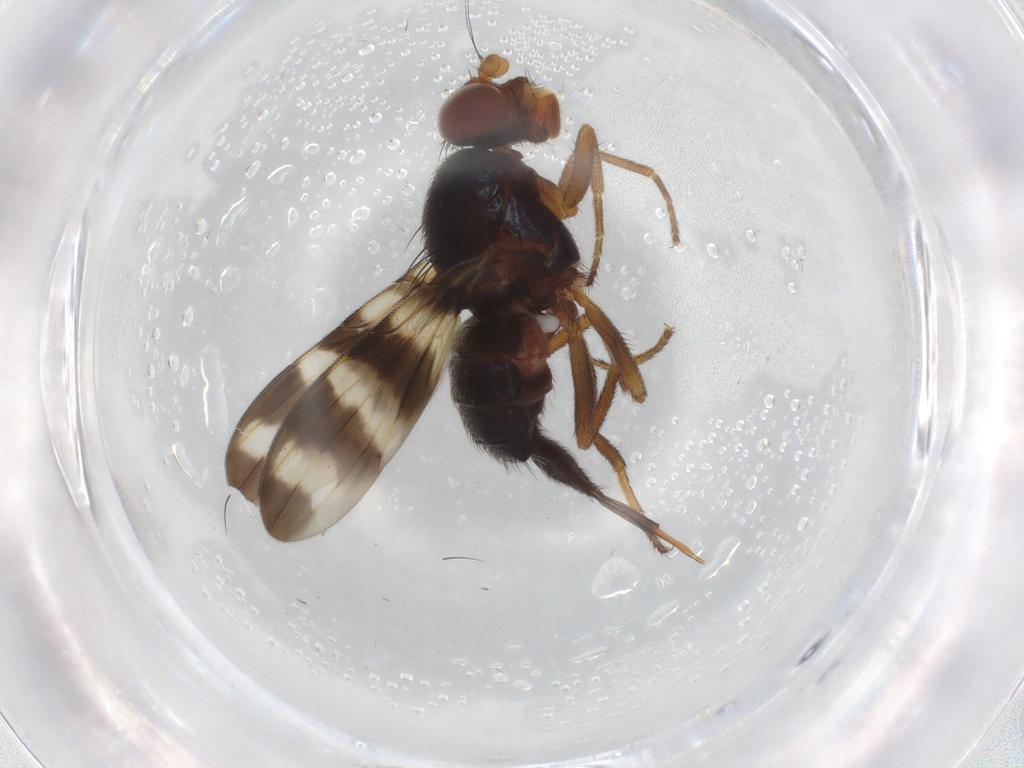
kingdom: Animalia
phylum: Arthropoda
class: Insecta
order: Diptera
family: Ulidiidae
